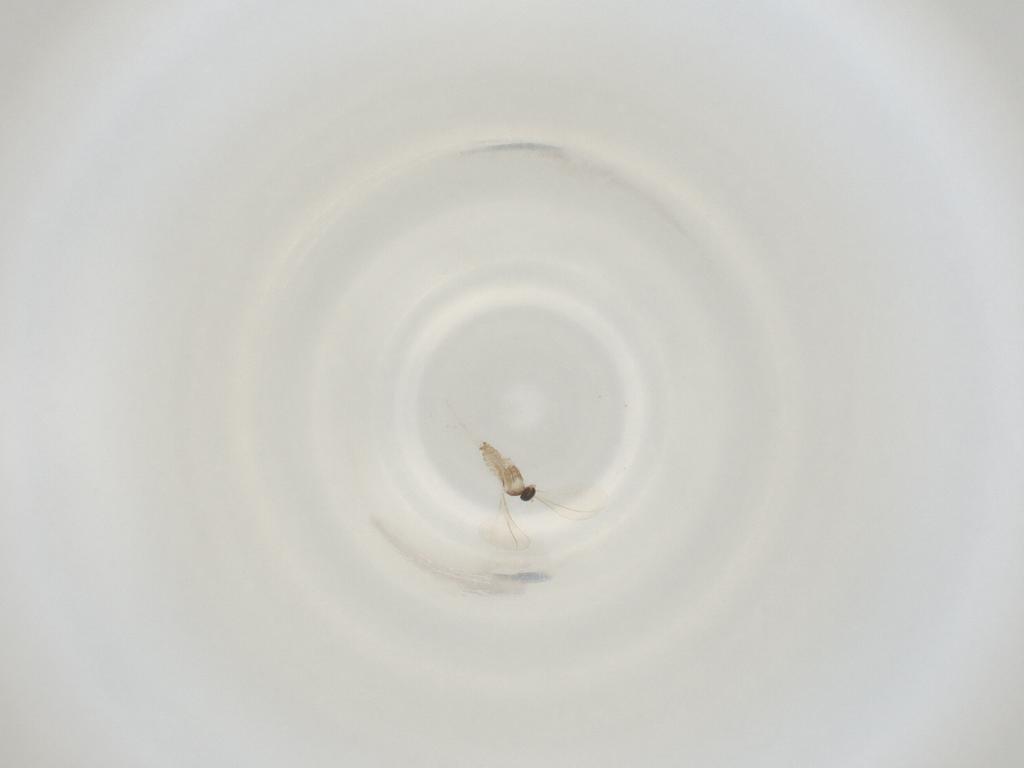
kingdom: Animalia
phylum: Arthropoda
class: Insecta
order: Diptera
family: Cecidomyiidae
